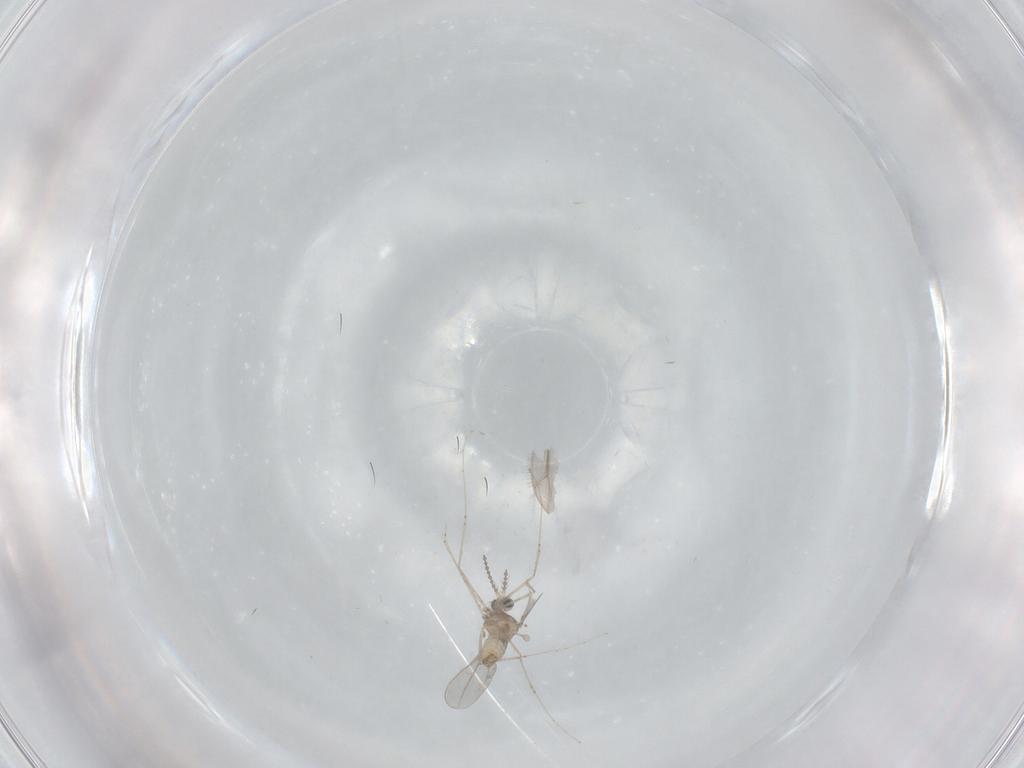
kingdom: Animalia
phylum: Arthropoda
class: Insecta
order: Diptera
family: Cecidomyiidae
